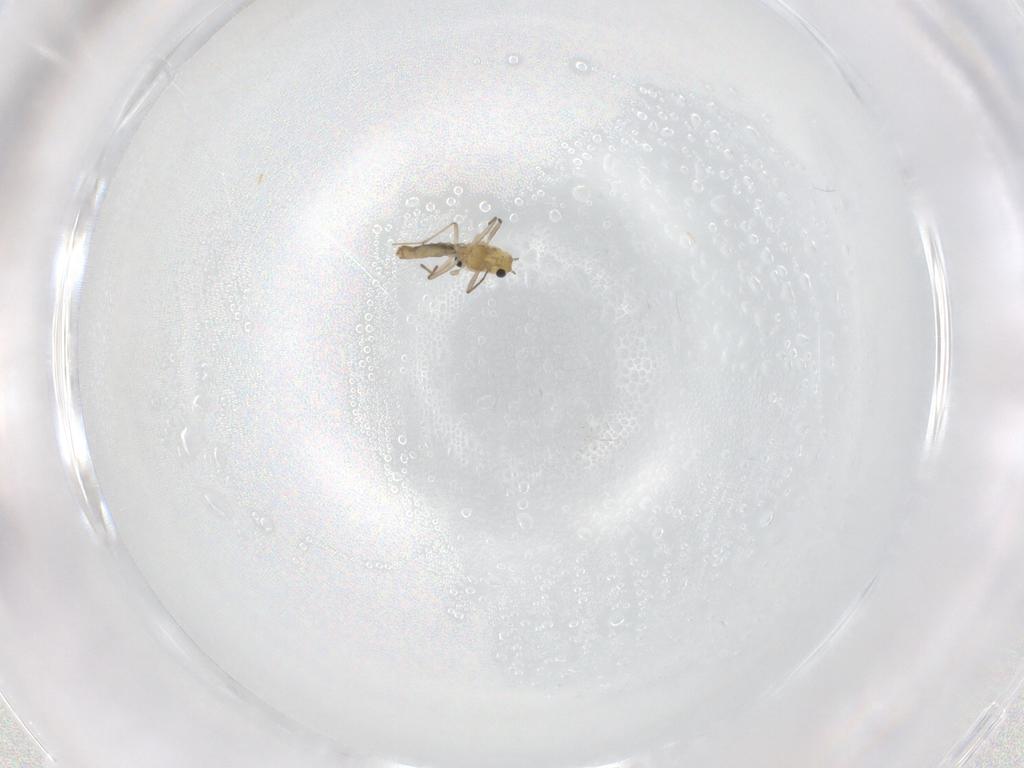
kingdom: Animalia
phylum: Arthropoda
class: Insecta
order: Diptera
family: Chironomidae
